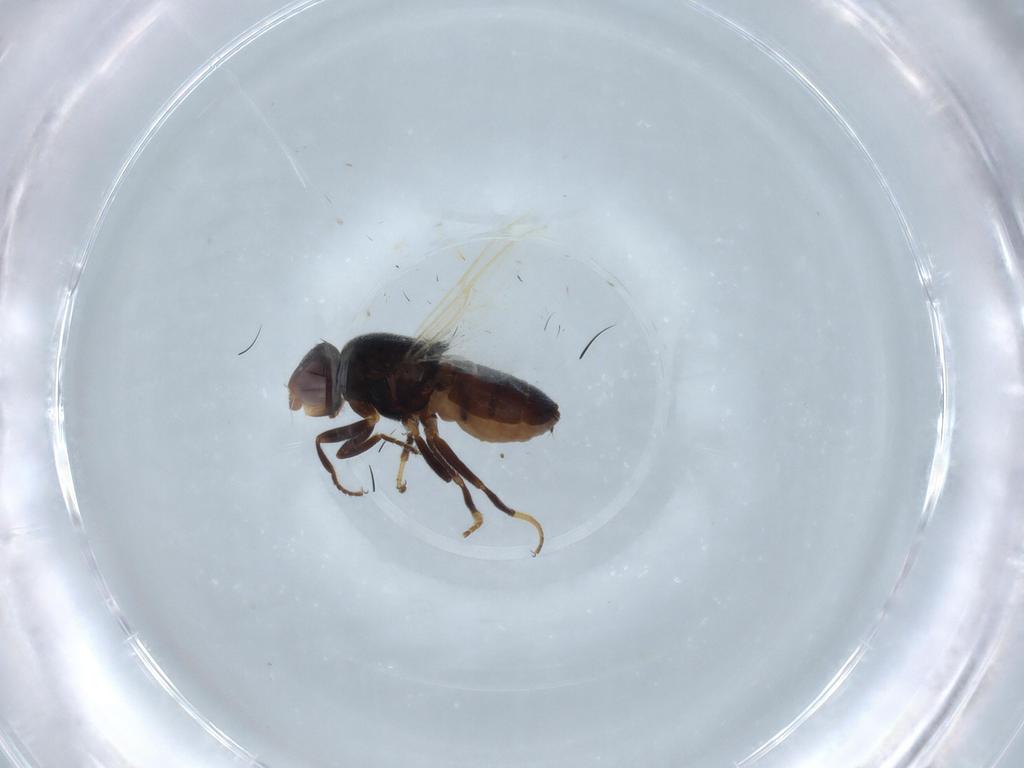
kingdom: Animalia
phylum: Arthropoda
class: Insecta
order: Diptera
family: Chloropidae
